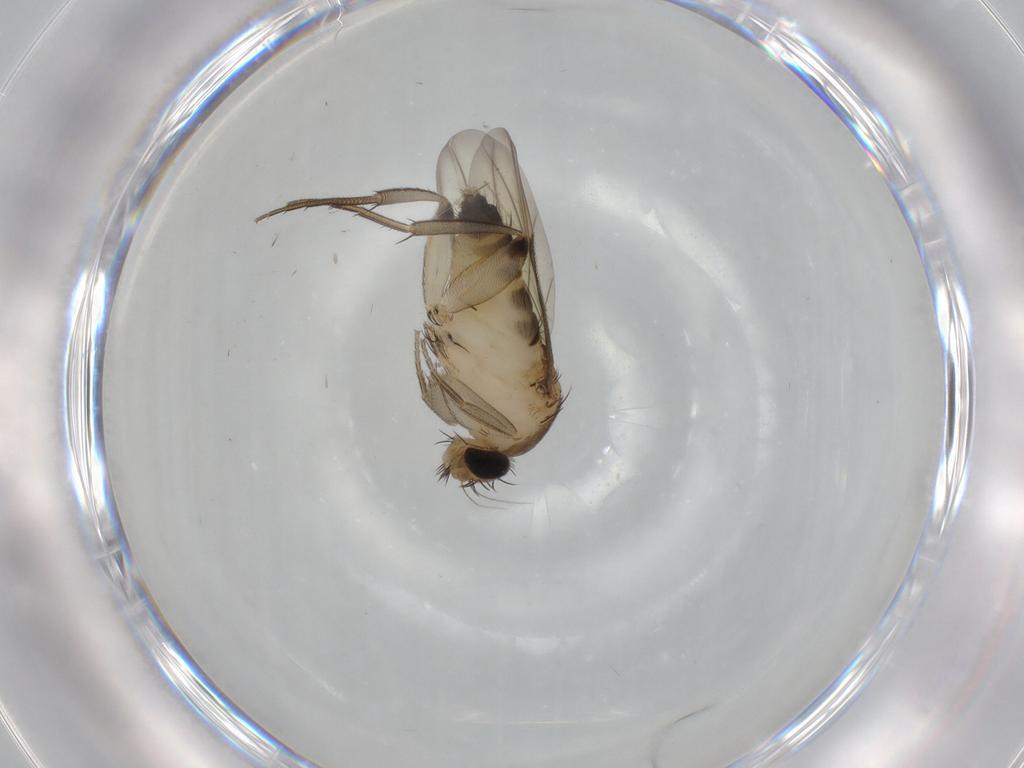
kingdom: Animalia
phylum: Arthropoda
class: Insecta
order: Diptera
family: Phoridae
